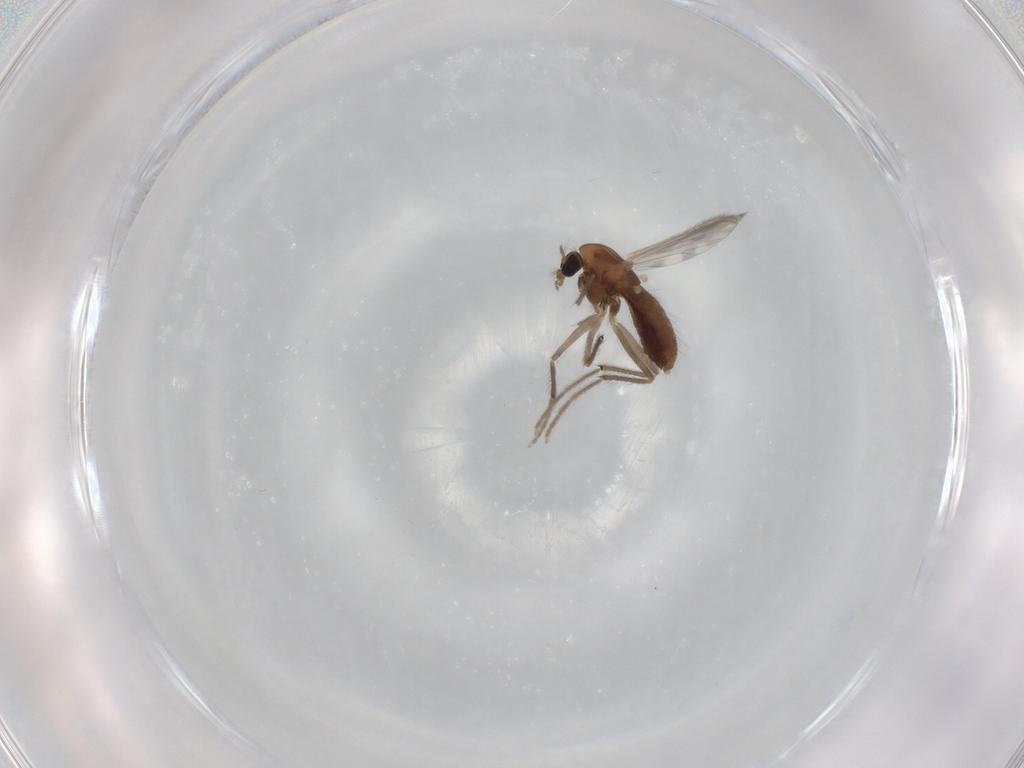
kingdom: Animalia
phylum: Arthropoda
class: Insecta
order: Diptera
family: Chironomidae
